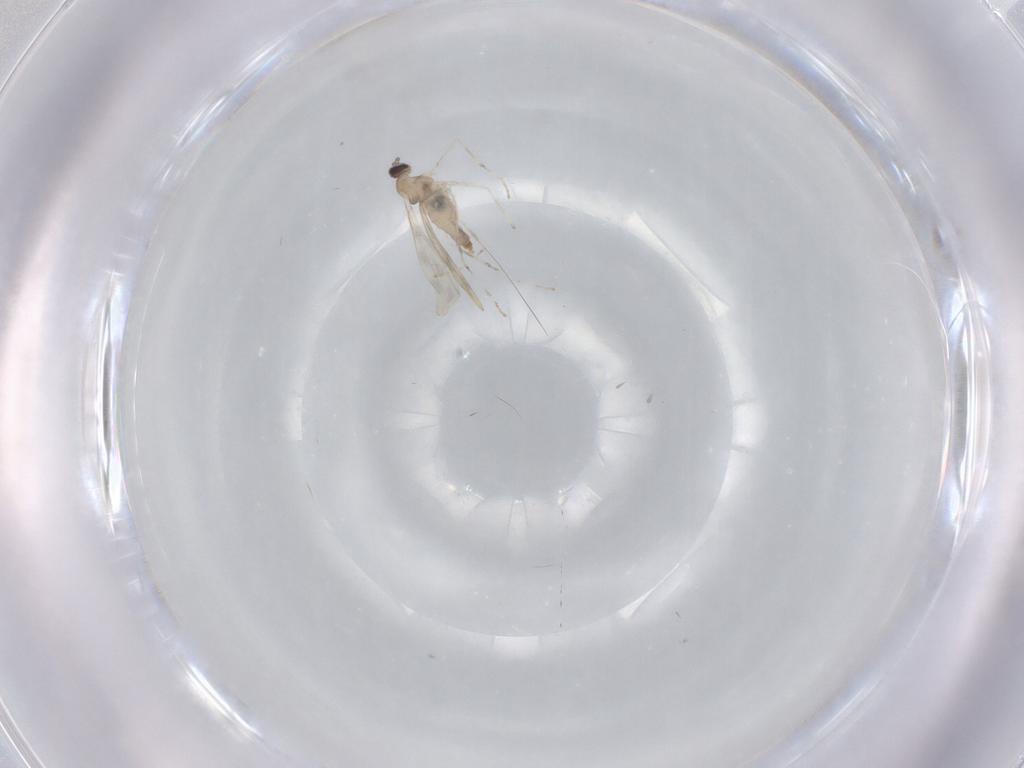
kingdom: Animalia
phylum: Arthropoda
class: Insecta
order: Diptera
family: Cecidomyiidae
